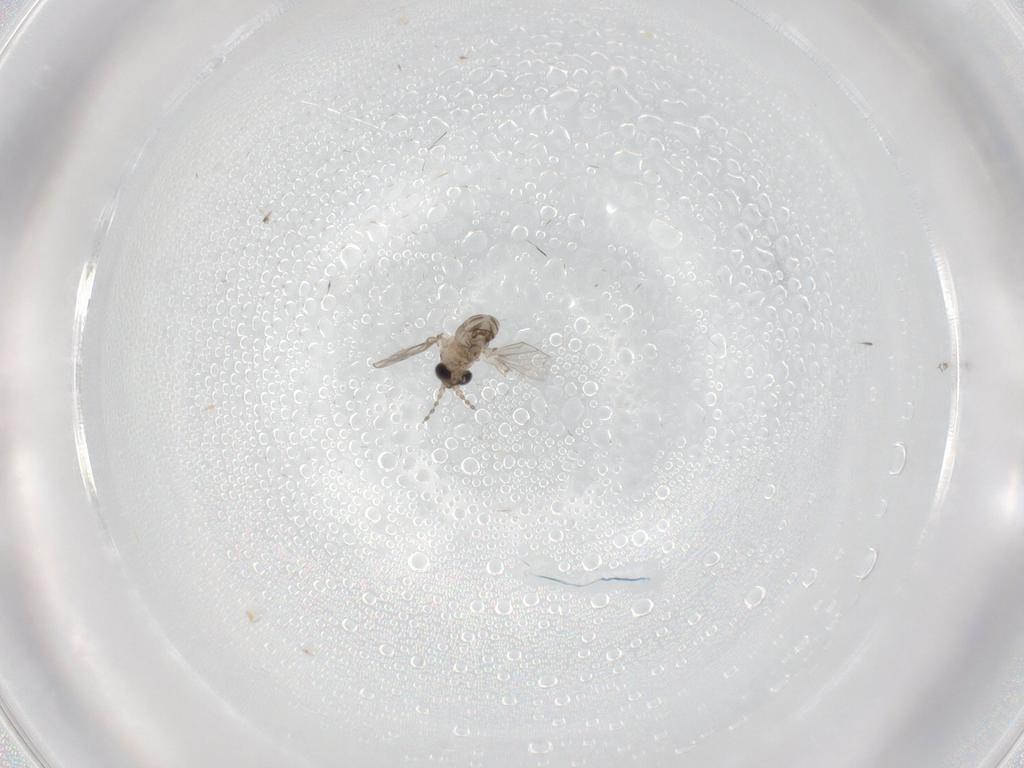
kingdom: Animalia
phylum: Arthropoda
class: Insecta
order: Diptera
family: Psychodidae
